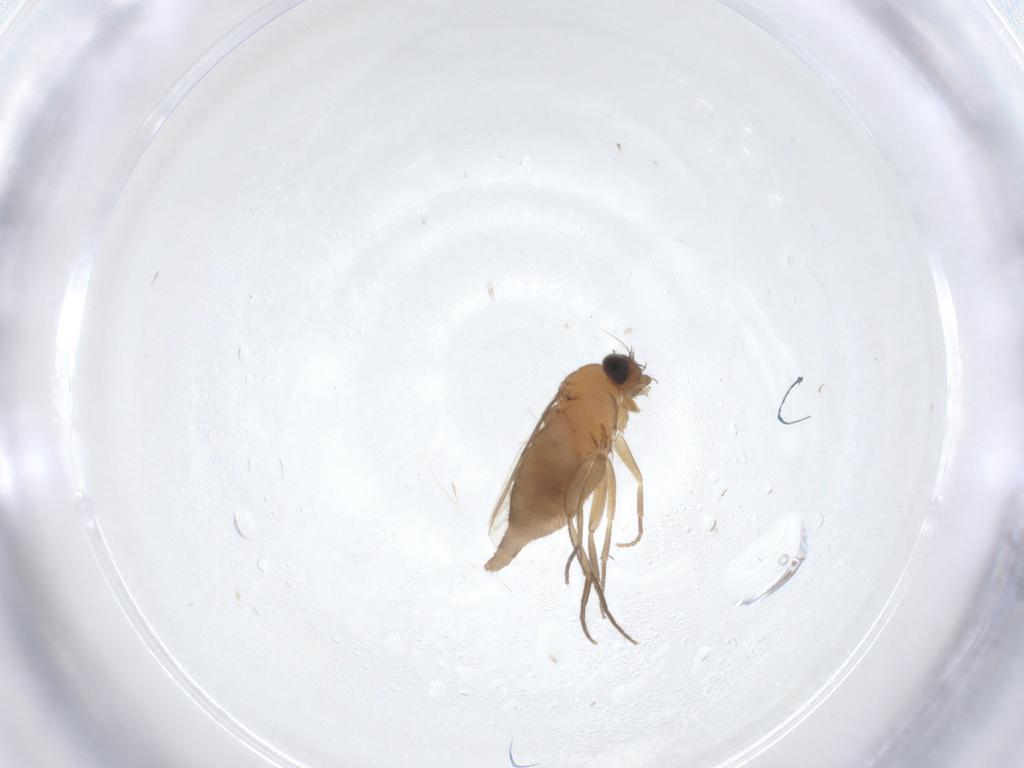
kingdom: Animalia
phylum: Arthropoda
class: Insecta
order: Diptera
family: Phoridae
